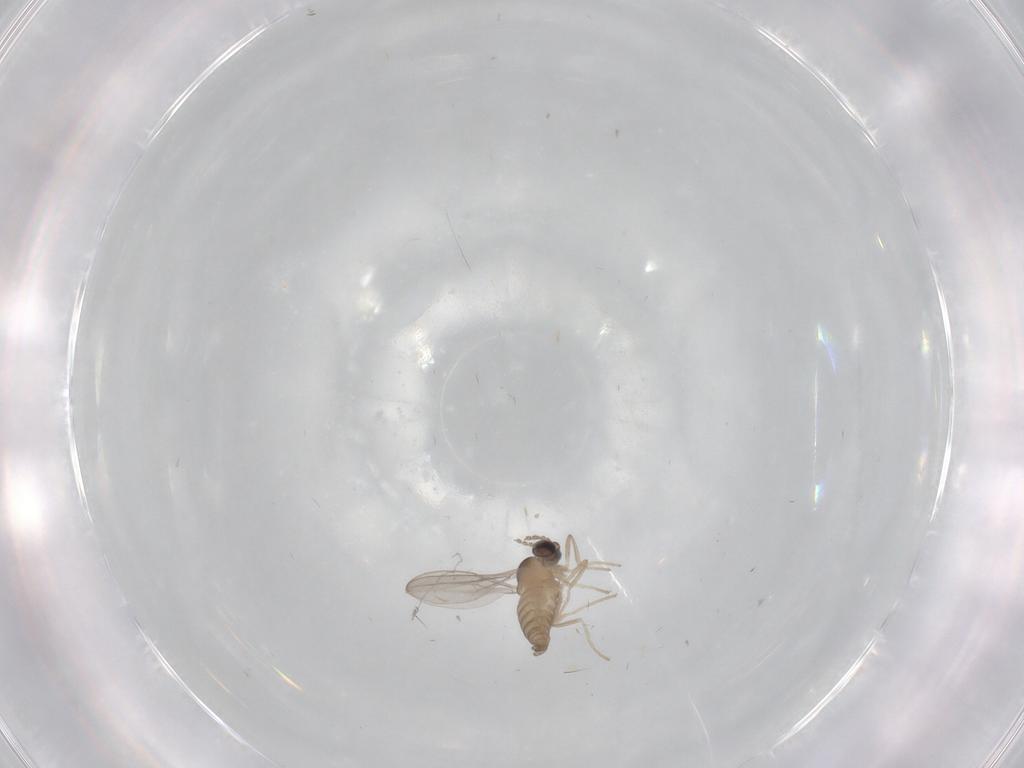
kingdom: Animalia
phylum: Arthropoda
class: Insecta
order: Diptera
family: Cecidomyiidae
